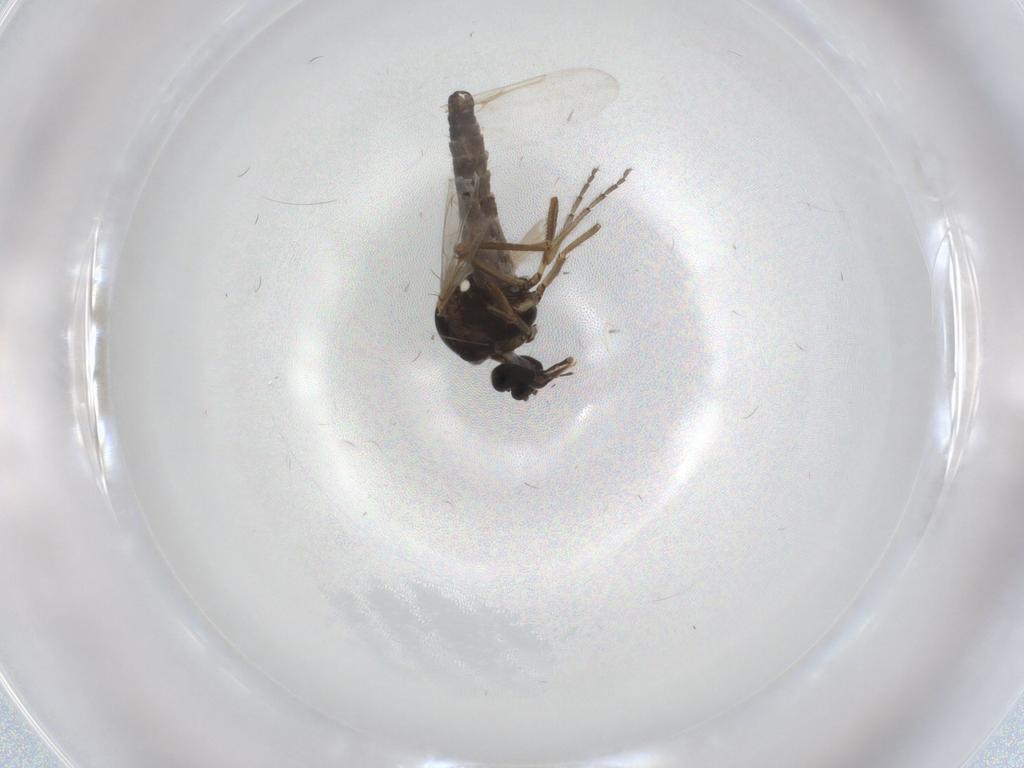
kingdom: Animalia
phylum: Arthropoda
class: Insecta
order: Diptera
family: Ceratopogonidae
